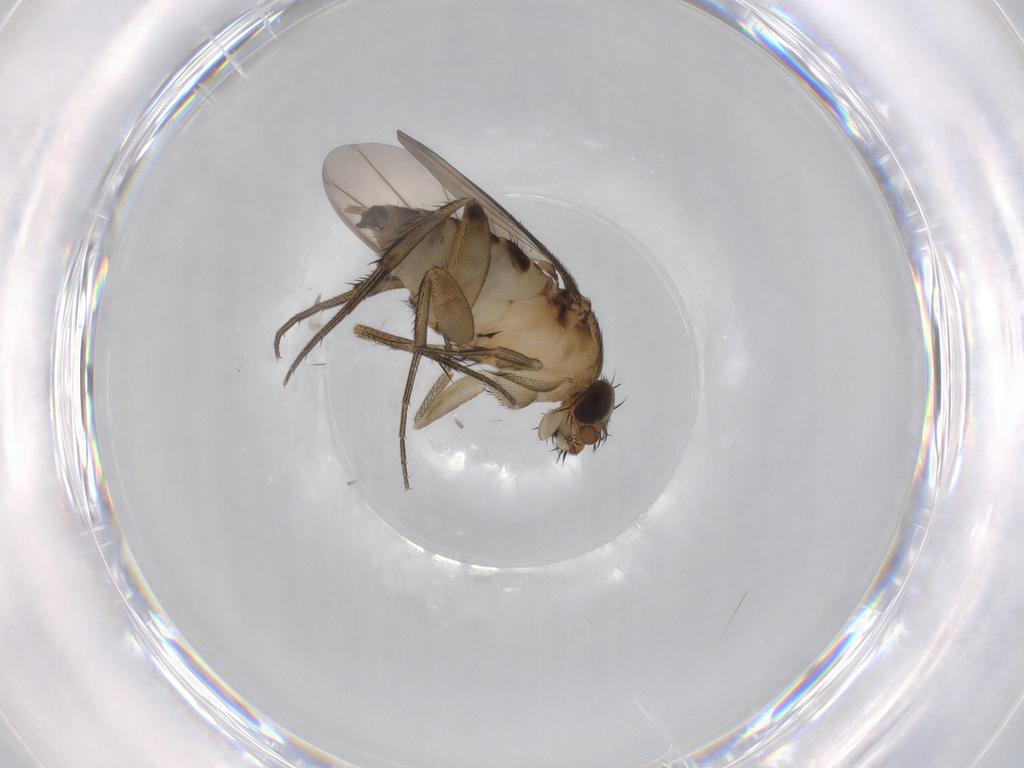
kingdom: Animalia
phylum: Arthropoda
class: Insecta
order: Diptera
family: Phoridae
